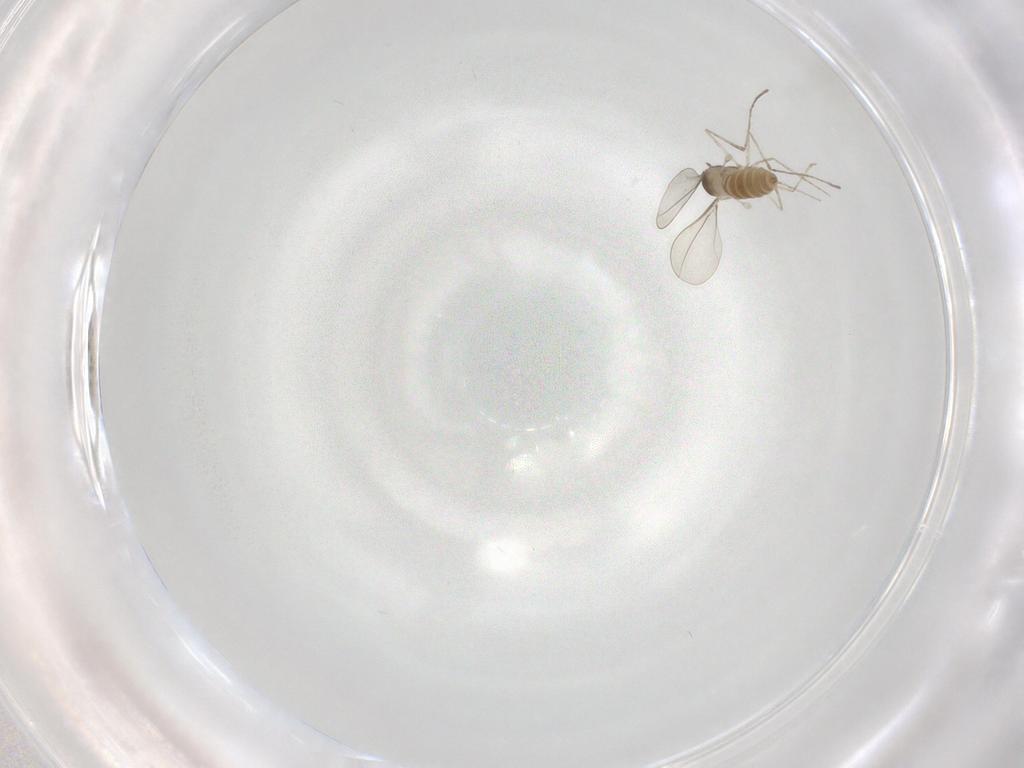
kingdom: Animalia
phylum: Arthropoda
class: Insecta
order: Diptera
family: Cecidomyiidae
